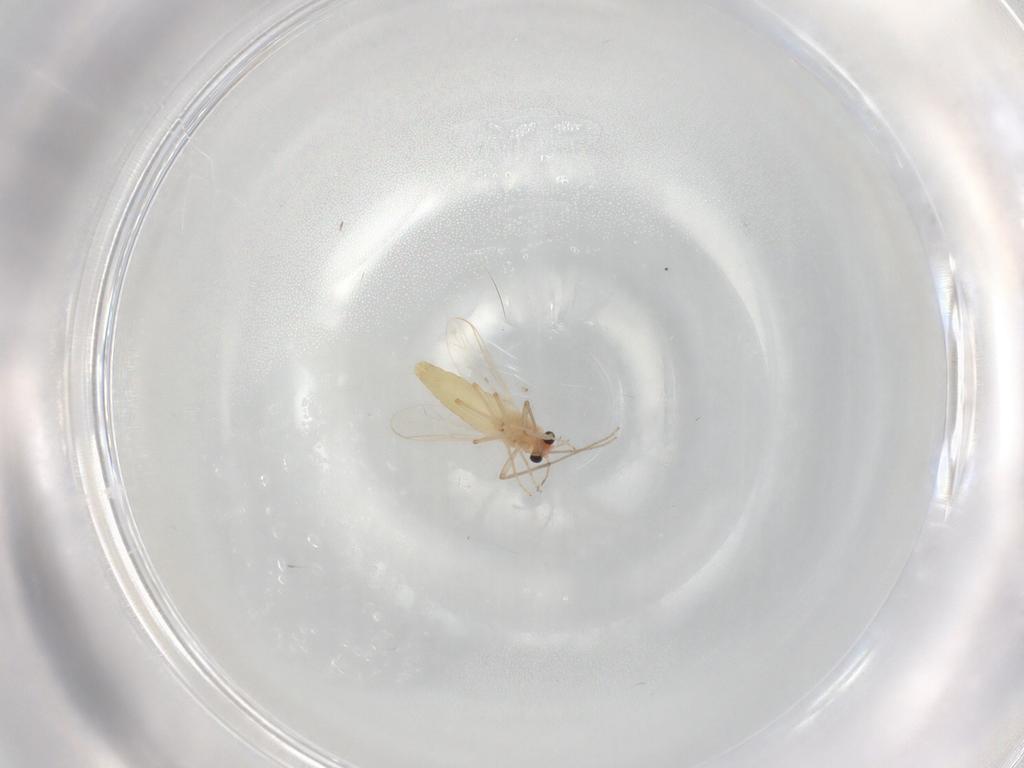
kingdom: Animalia
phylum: Arthropoda
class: Insecta
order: Diptera
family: Chironomidae
